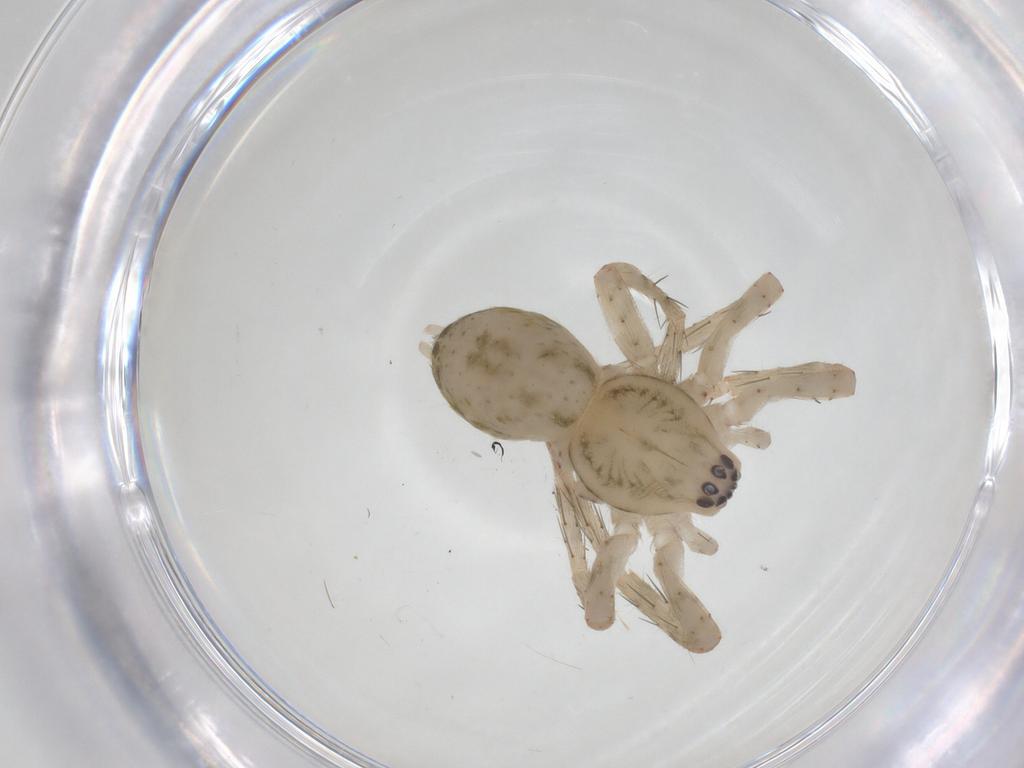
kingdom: Animalia
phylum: Arthropoda
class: Arachnida
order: Araneae
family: Anyphaenidae
